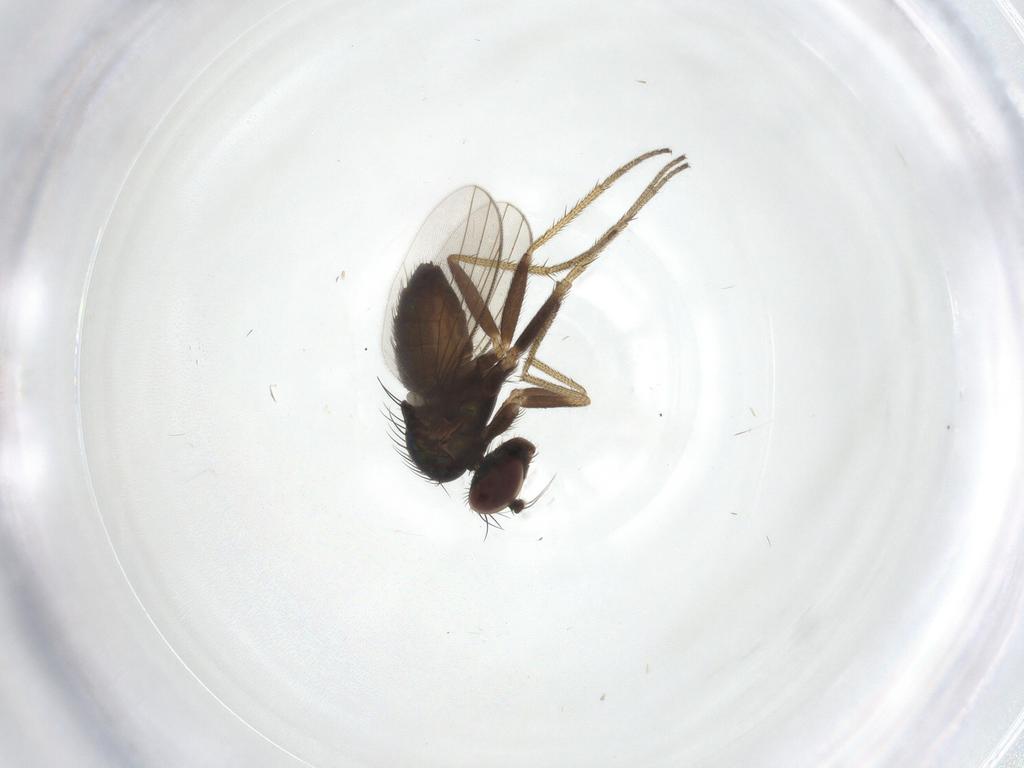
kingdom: Animalia
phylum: Arthropoda
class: Insecta
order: Diptera
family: Dolichopodidae
